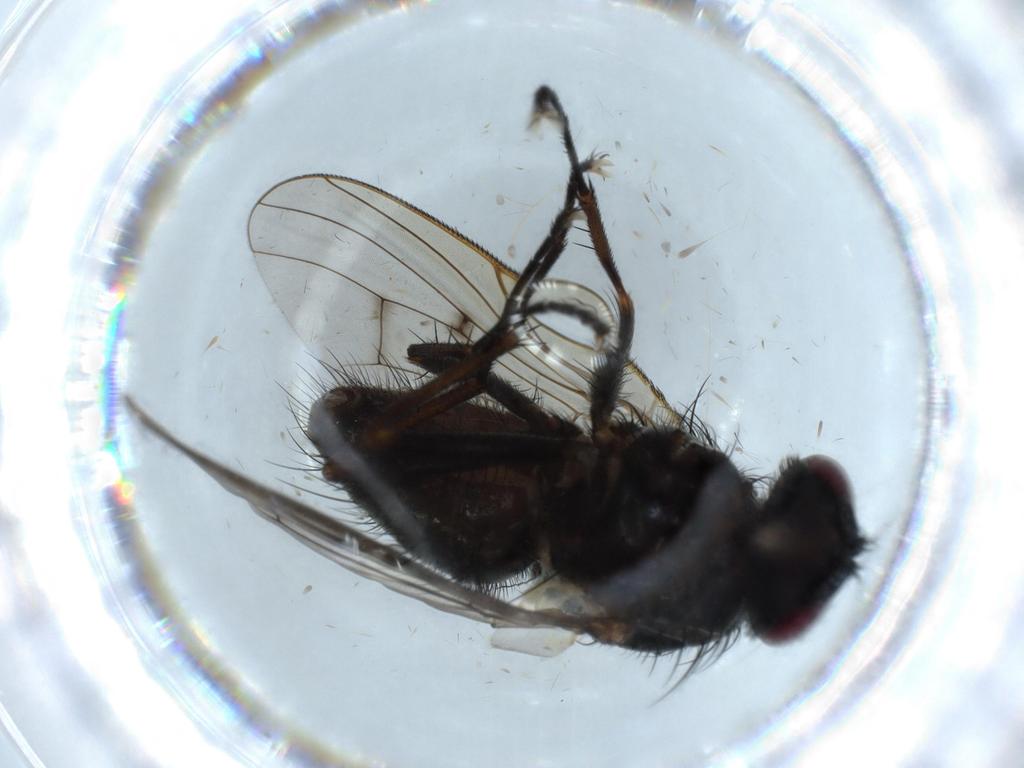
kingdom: Animalia
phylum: Arthropoda
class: Insecta
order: Diptera
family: Muscidae
